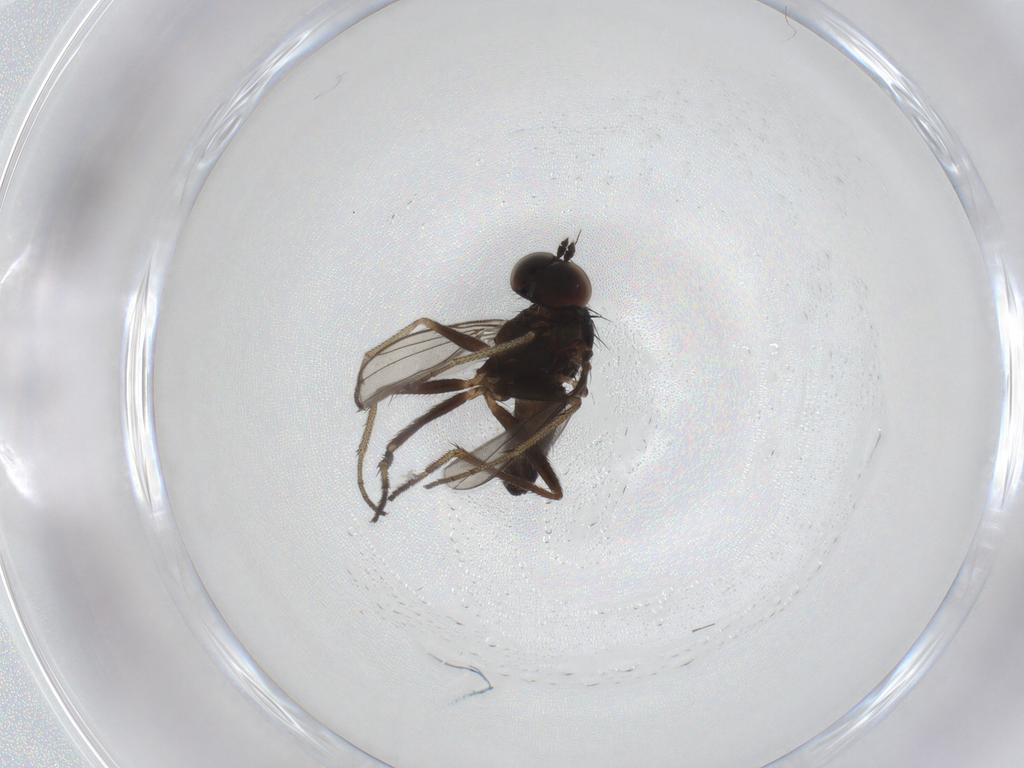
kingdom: Animalia
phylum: Arthropoda
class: Insecta
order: Diptera
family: Dolichopodidae
